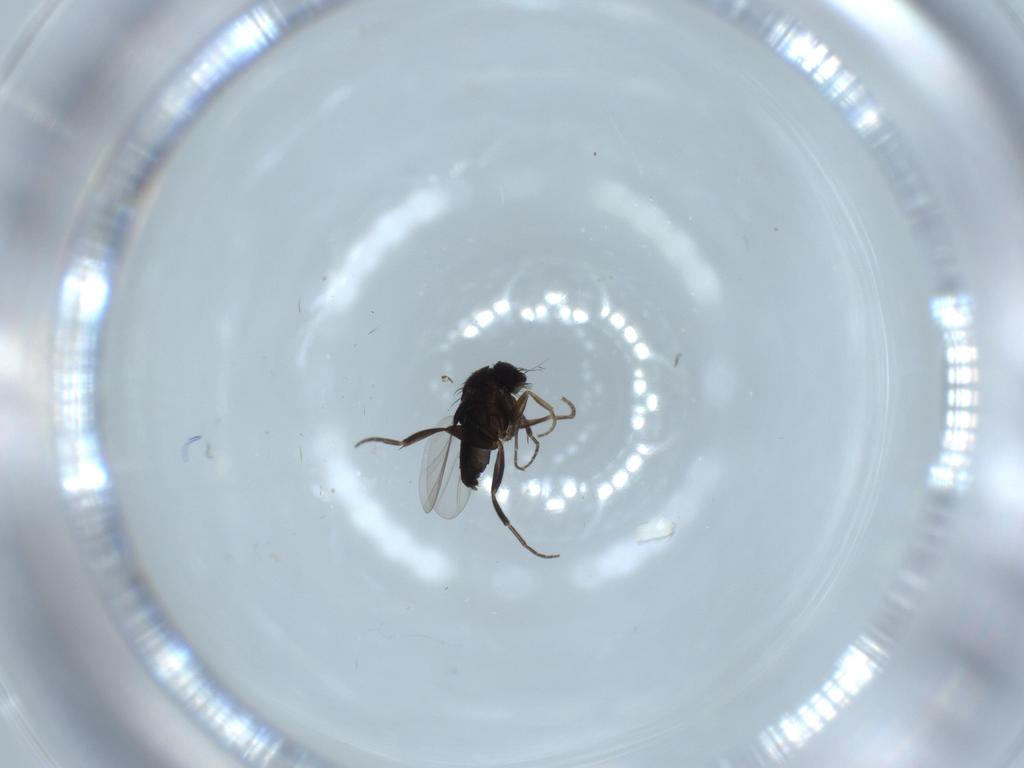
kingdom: Animalia
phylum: Arthropoda
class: Insecta
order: Diptera
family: Phoridae
